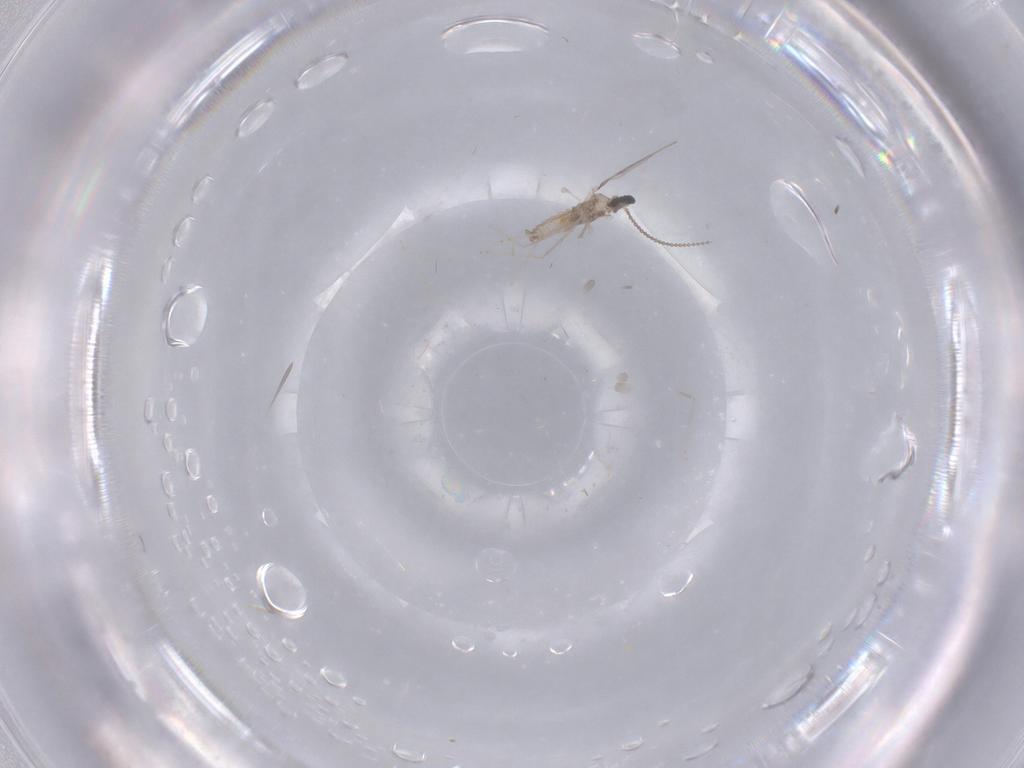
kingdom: Animalia
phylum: Arthropoda
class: Insecta
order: Diptera
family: Cecidomyiidae
